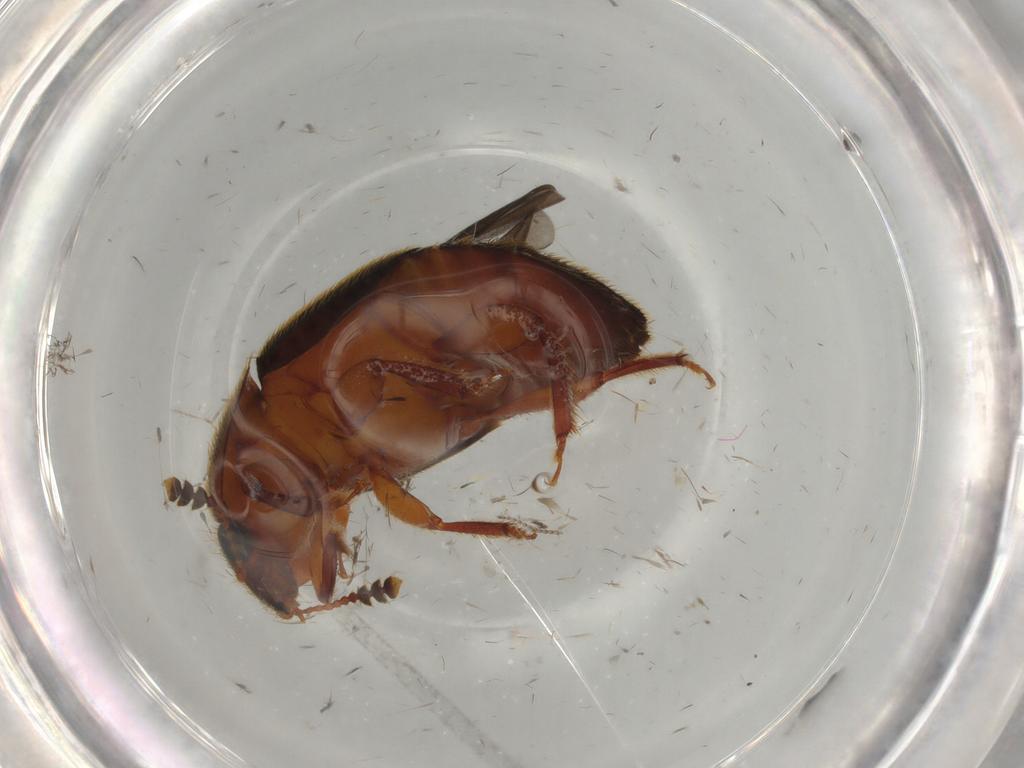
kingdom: Animalia
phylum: Arthropoda
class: Insecta
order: Coleoptera
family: Nitidulidae
